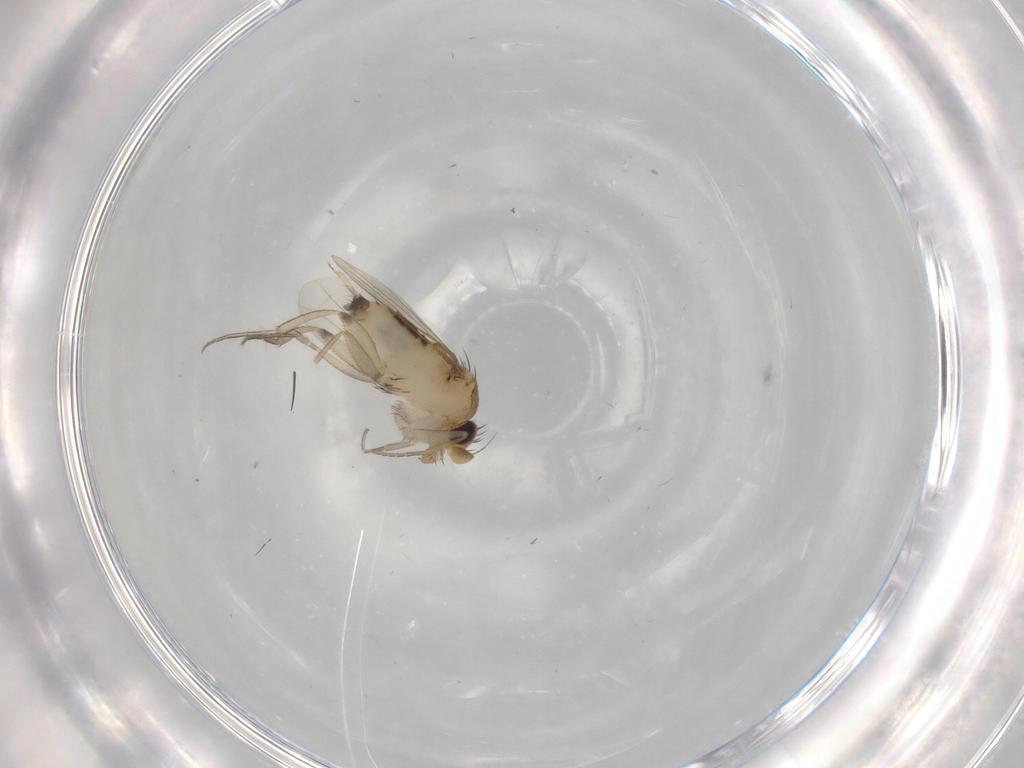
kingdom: Animalia
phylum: Arthropoda
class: Insecta
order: Diptera
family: Phoridae
